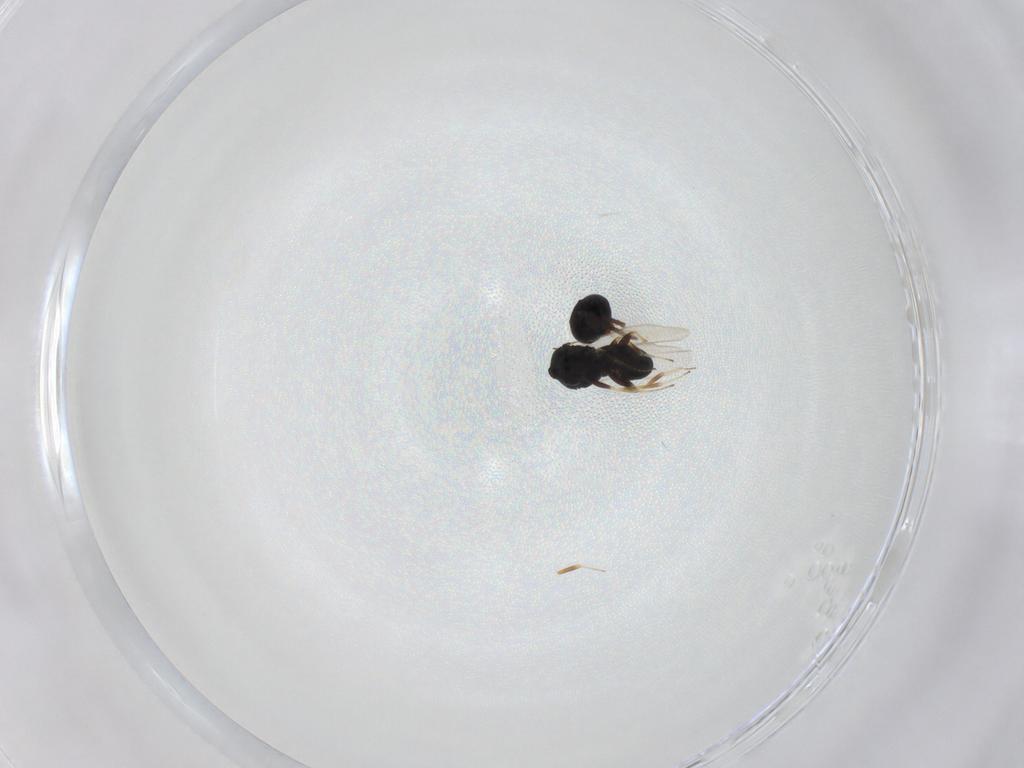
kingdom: Animalia
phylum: Arthropoda
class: Insecta
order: Hymenoptera
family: Scelionidae
